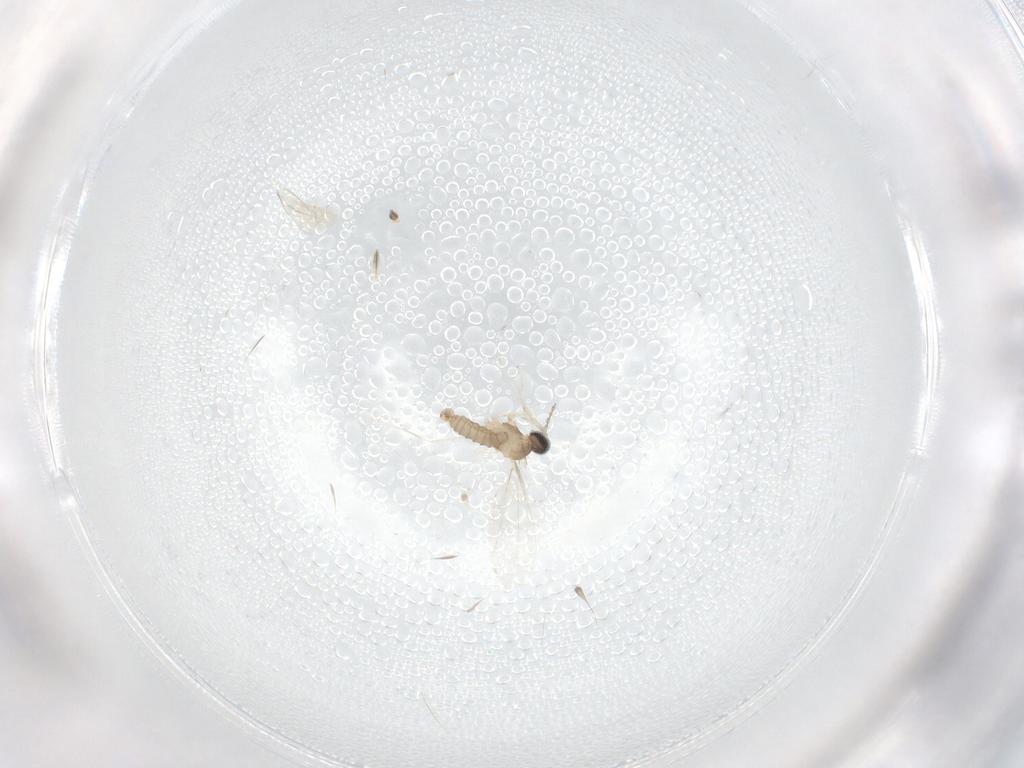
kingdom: Animalia
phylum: Arthropoda
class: Insecta
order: Diptera
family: Cecidomyiidae
